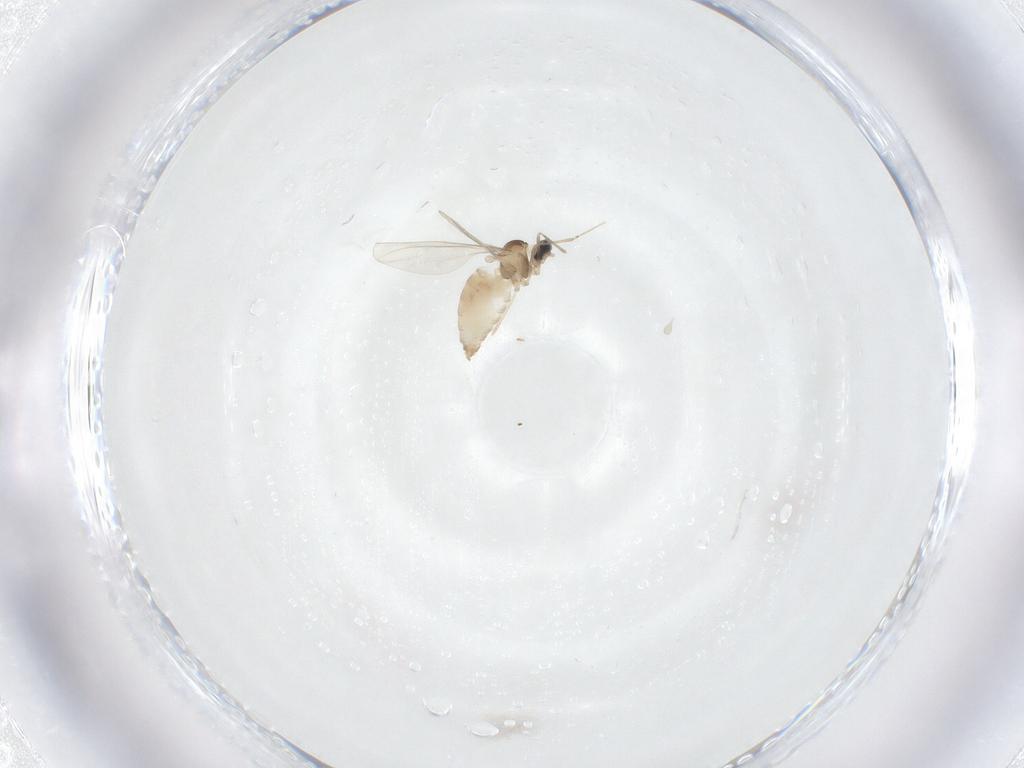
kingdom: Animalia
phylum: Arthropoda
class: Insecta
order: Diptera
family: Cecidomyiidae
